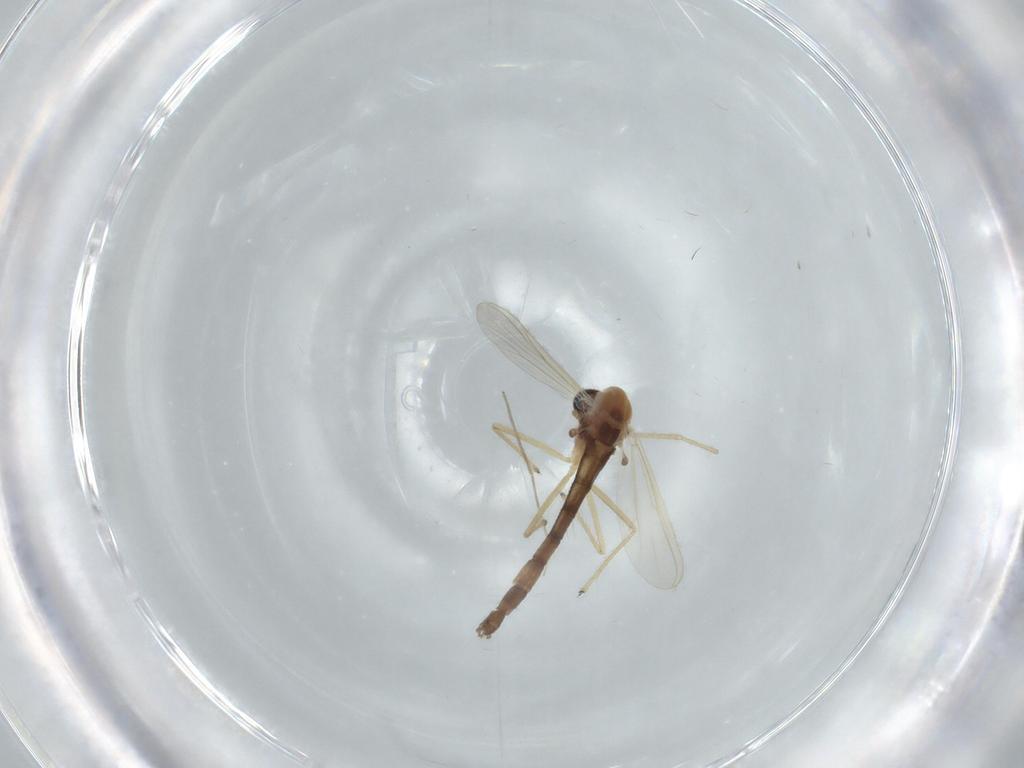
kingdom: Animalia
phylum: Arthropoda
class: Insecta
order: Diptera
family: Chironomidae
